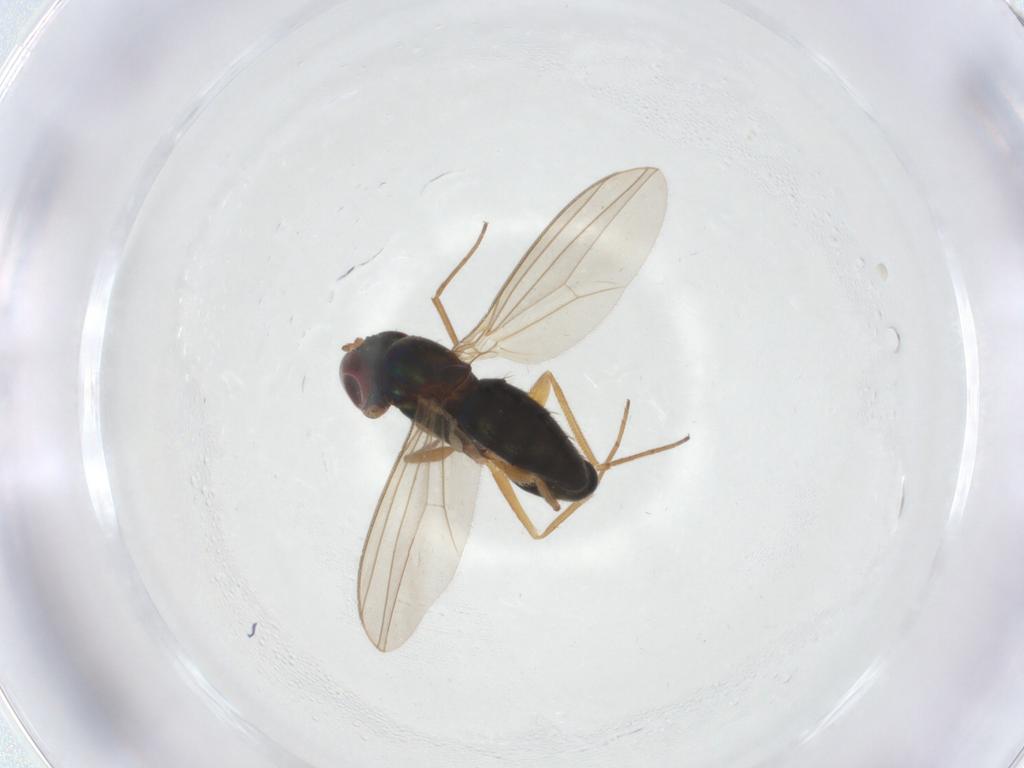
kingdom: Animalia
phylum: Arthropoda
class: Insecta
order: Diptera
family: Dolichopodidae
